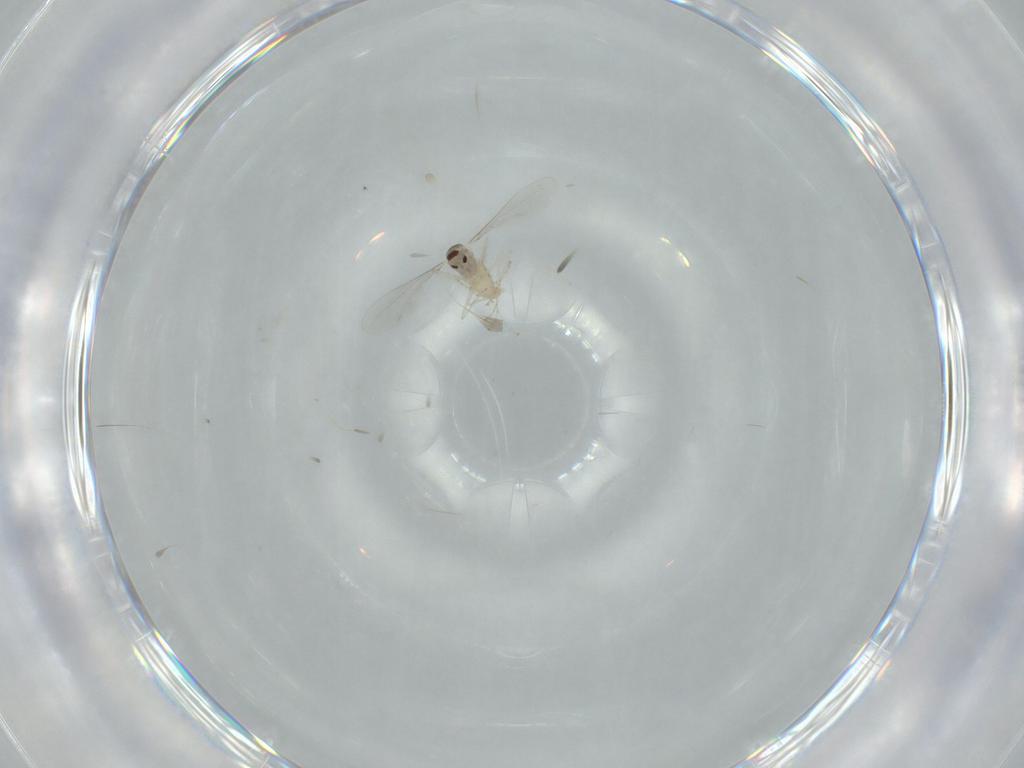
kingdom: Animalia
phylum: Arthropoda
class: Insecta
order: Diptera
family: Cecidomyiidae
